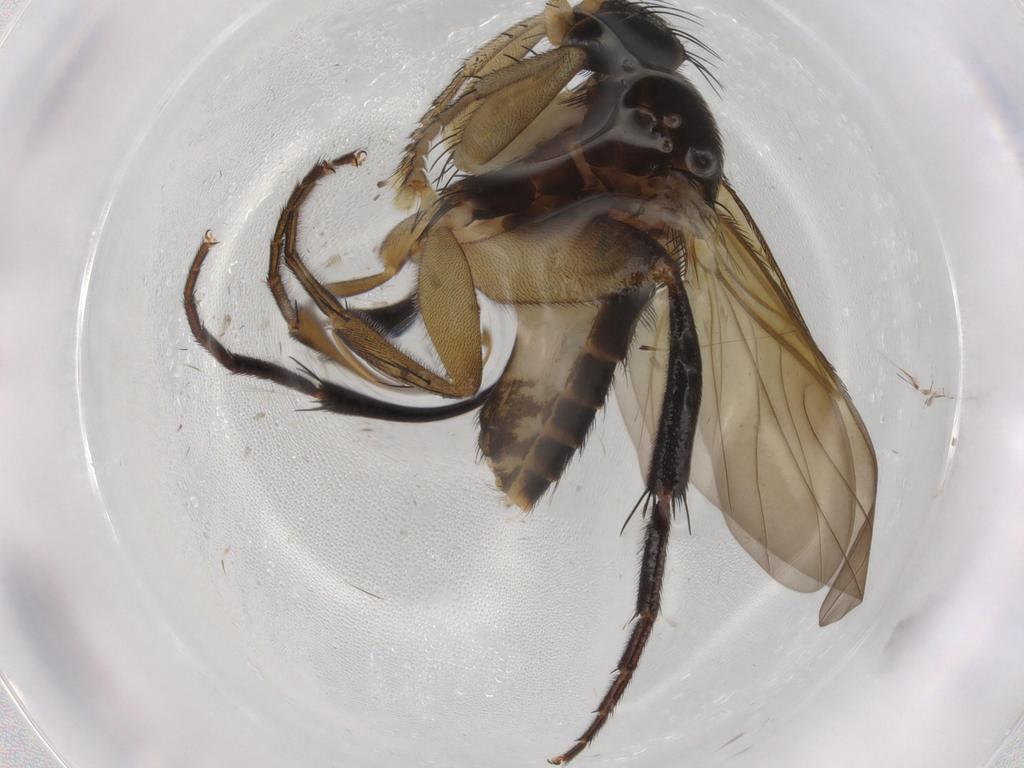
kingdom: Animalia
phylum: Arthropoda
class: Insecta
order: Diptera
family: Phoridae
